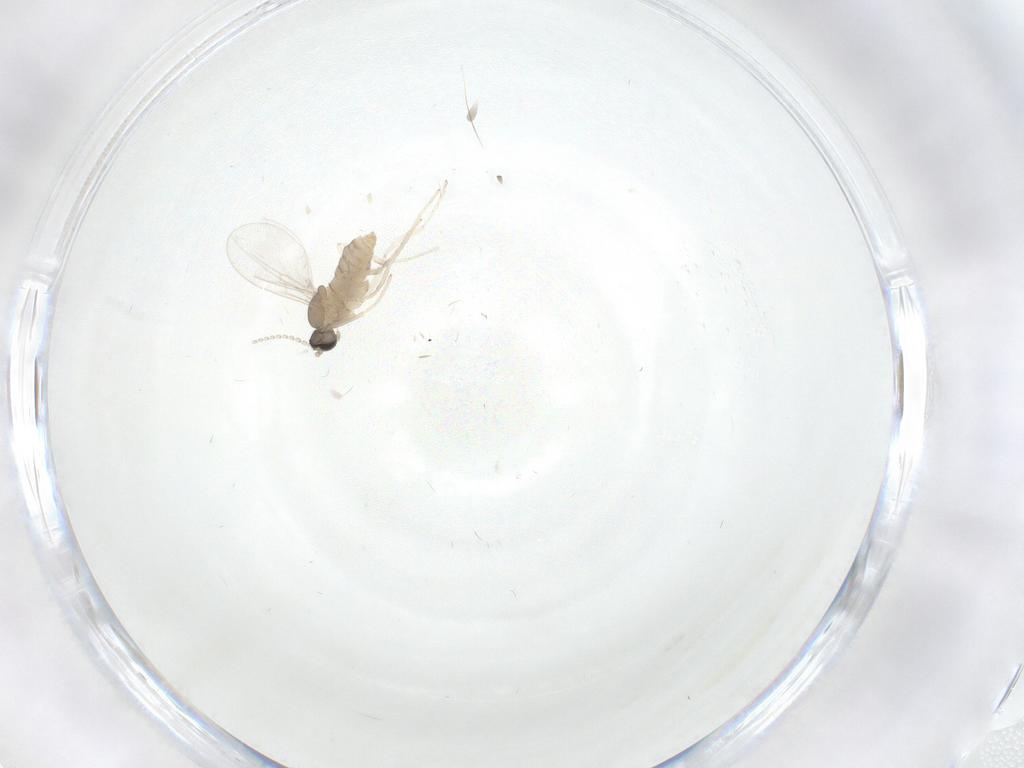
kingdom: Animalia
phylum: Arthropoda
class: Insecta
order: Diptera
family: Cecidomyiidae
